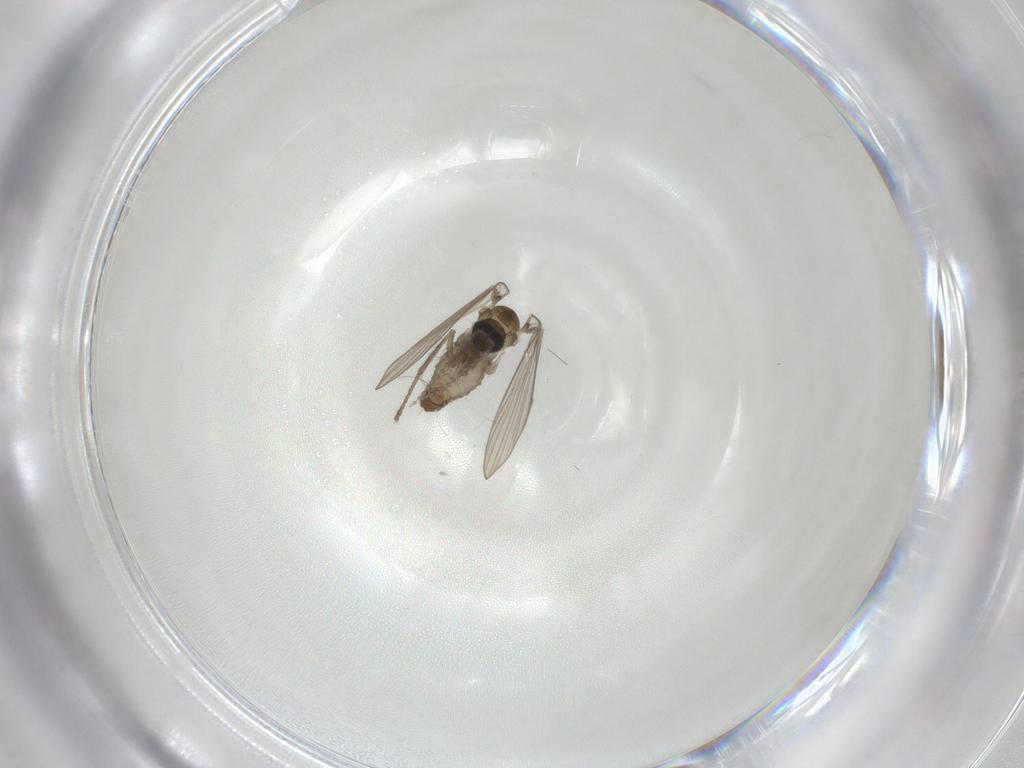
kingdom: Animalia
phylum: Arthropoda
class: Insecta
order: Diptera
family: Psychodidae
